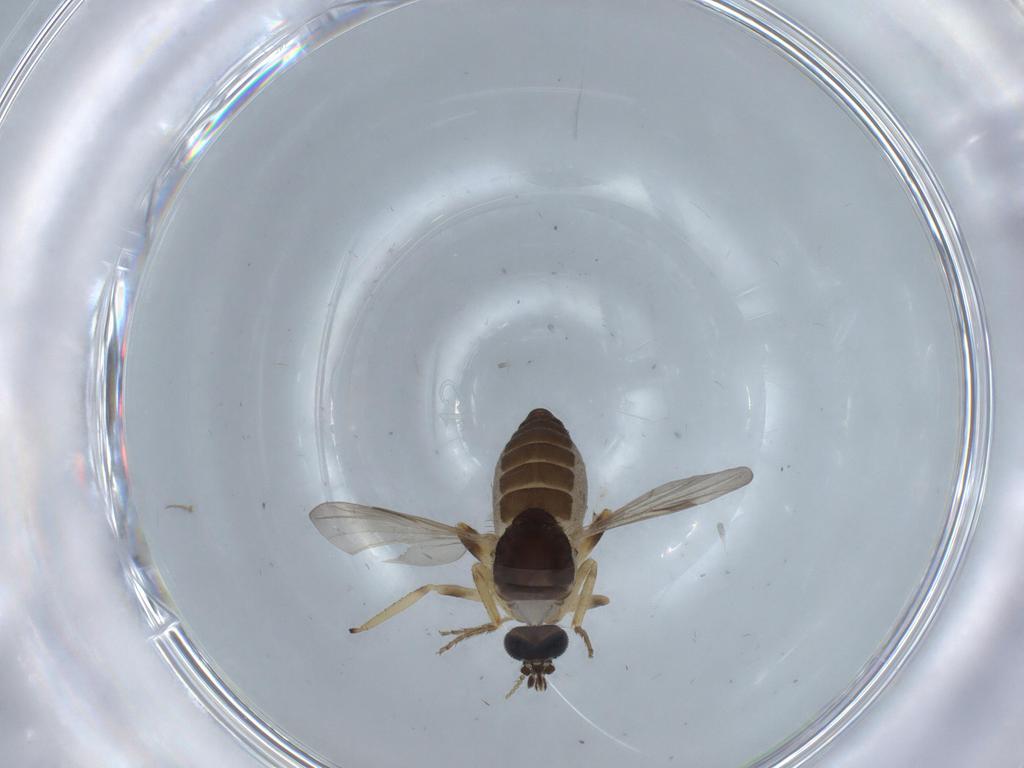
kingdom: Animalia
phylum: Arthropoda
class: Insecta
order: Diptera
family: Ceratopogonidae
